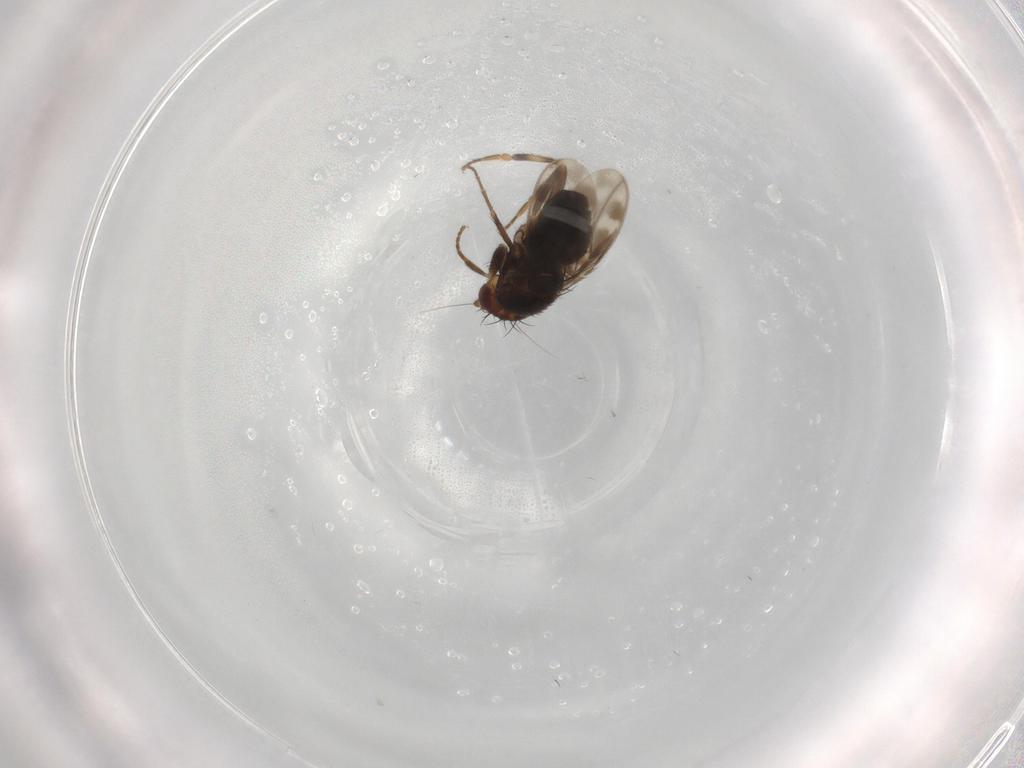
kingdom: Animalia
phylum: Arthropoda
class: Insecta
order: Diptera
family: Sphaeroceridae
